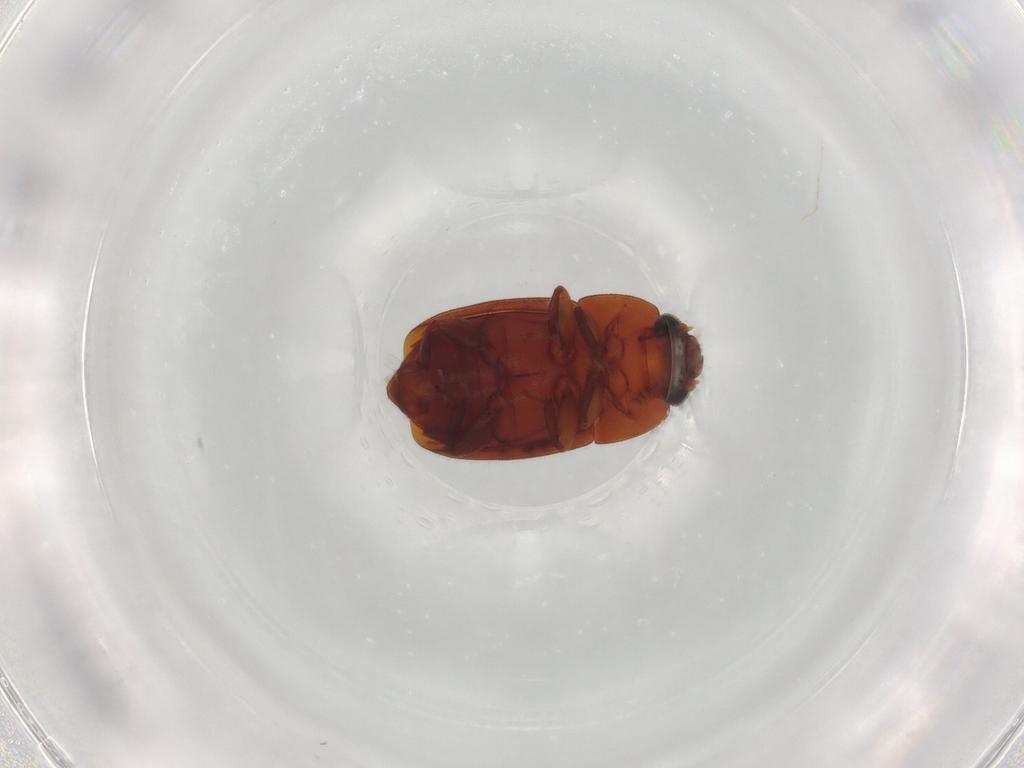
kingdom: Animalia
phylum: Arthropoda
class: Insecta
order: Coleoptera
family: Nitidulidae
